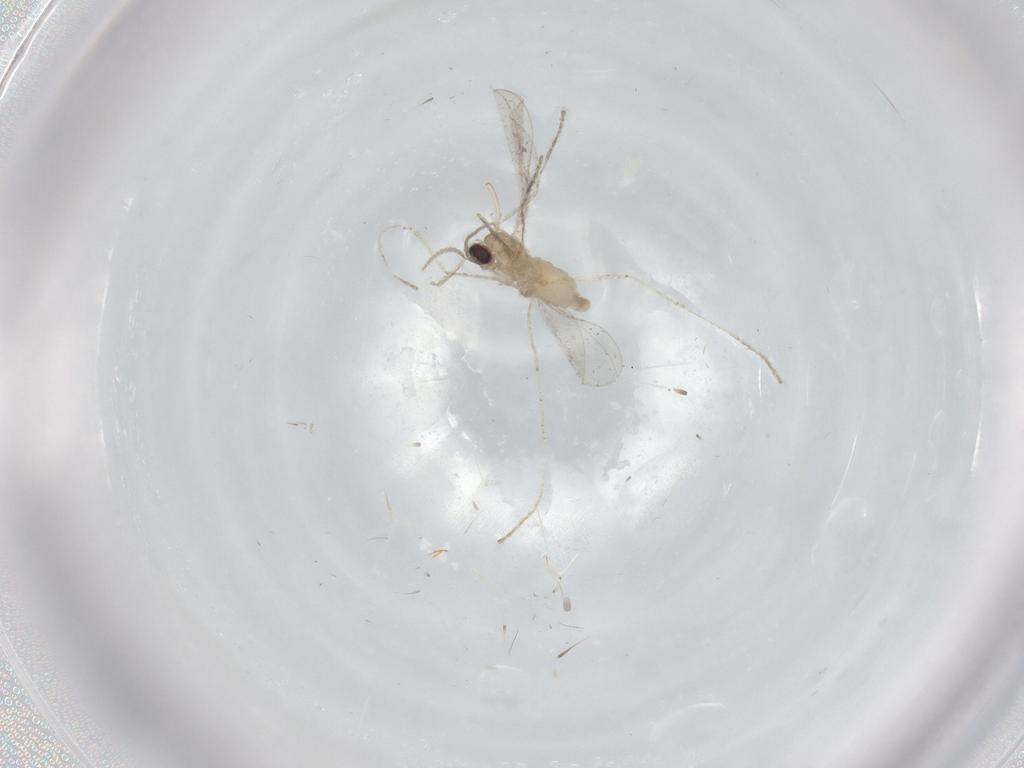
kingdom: Animalia
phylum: Arthropoda
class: Insecta
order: Diptera
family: Cecidomyiidae
